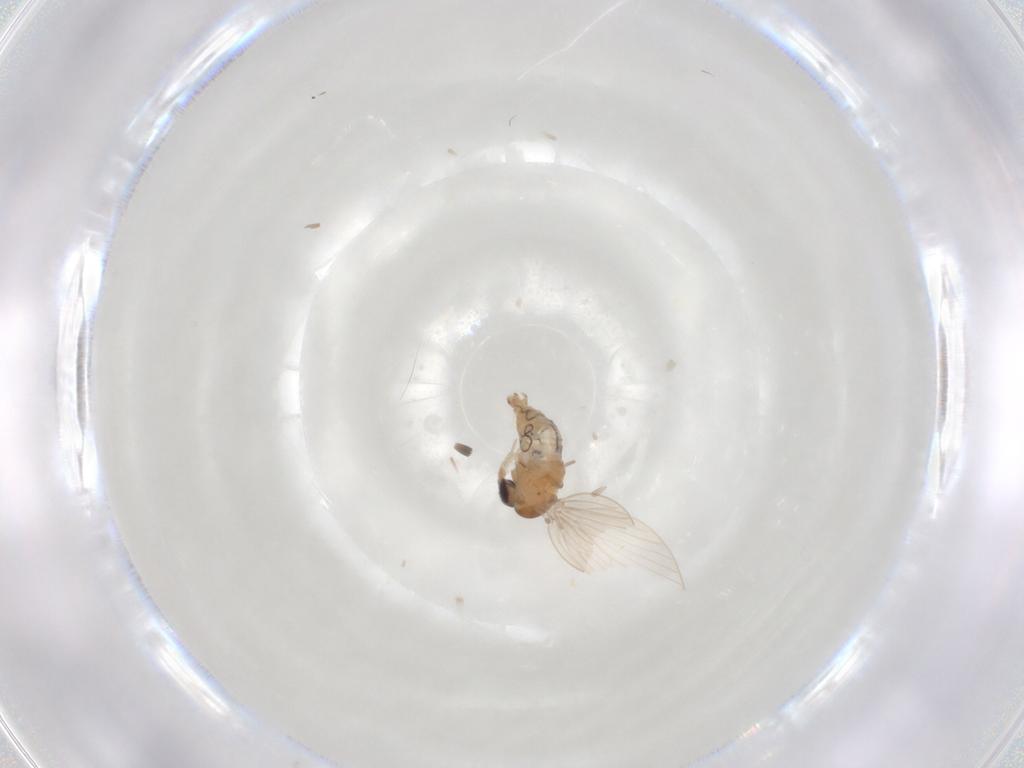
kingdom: Animalia
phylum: Arthropoda
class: Insecta
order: Diptera
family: Psychodidae
